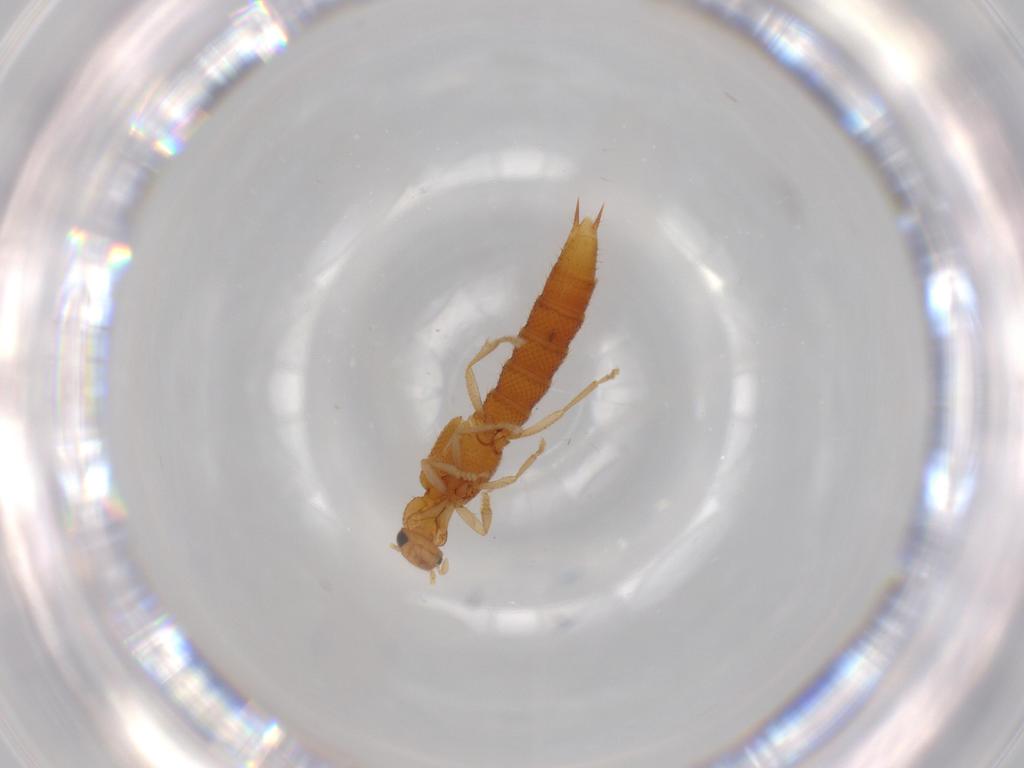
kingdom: Animalia
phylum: Arthropoda
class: Insecta
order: Coleoptera
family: Staphylinidae
